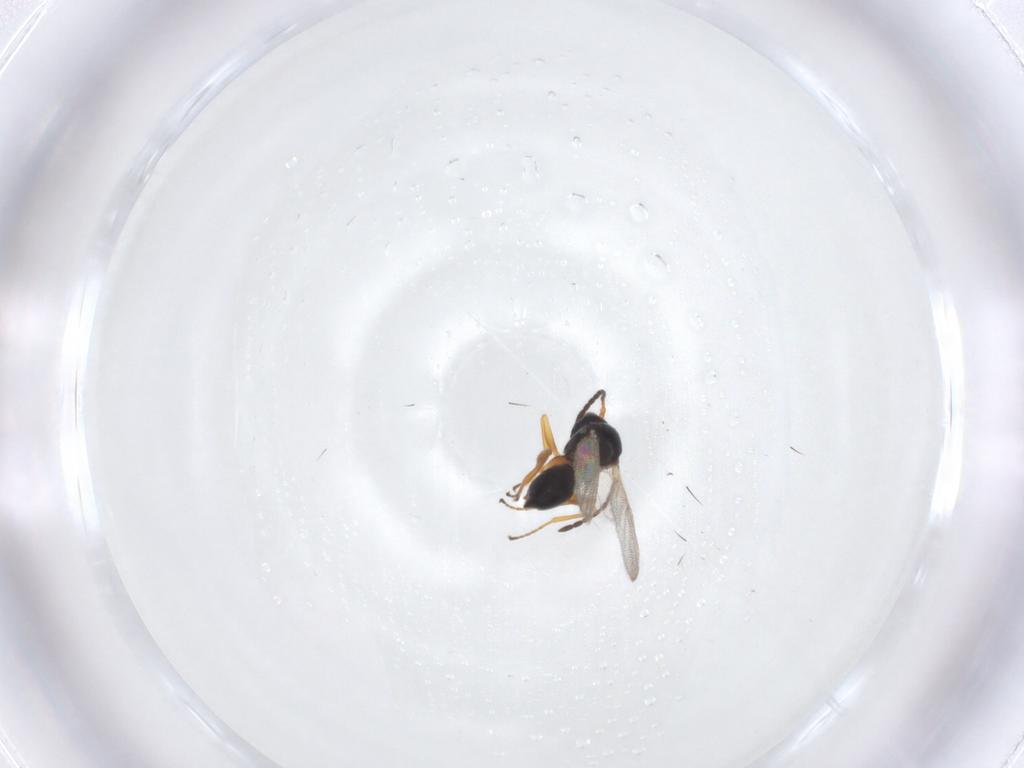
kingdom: Animalia
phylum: Arthropoda
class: Insecta
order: Hymenoptera
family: Figitidae
